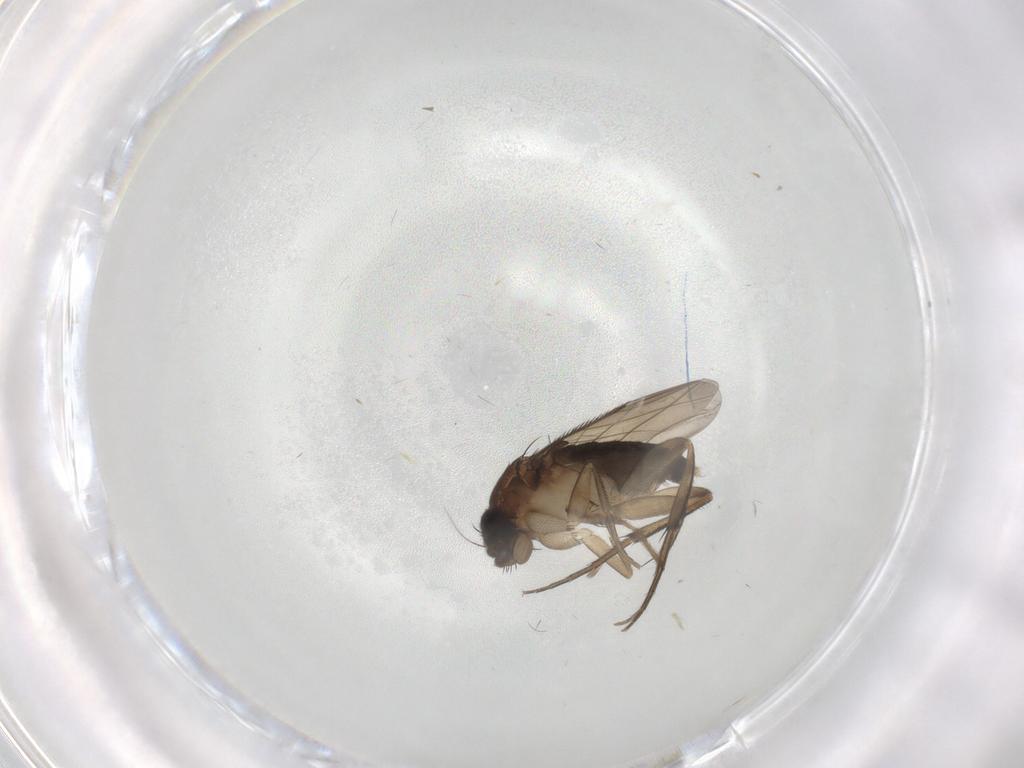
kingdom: Animalia
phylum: Arthropoda
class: Insecta
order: Diptera
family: Phoridae
